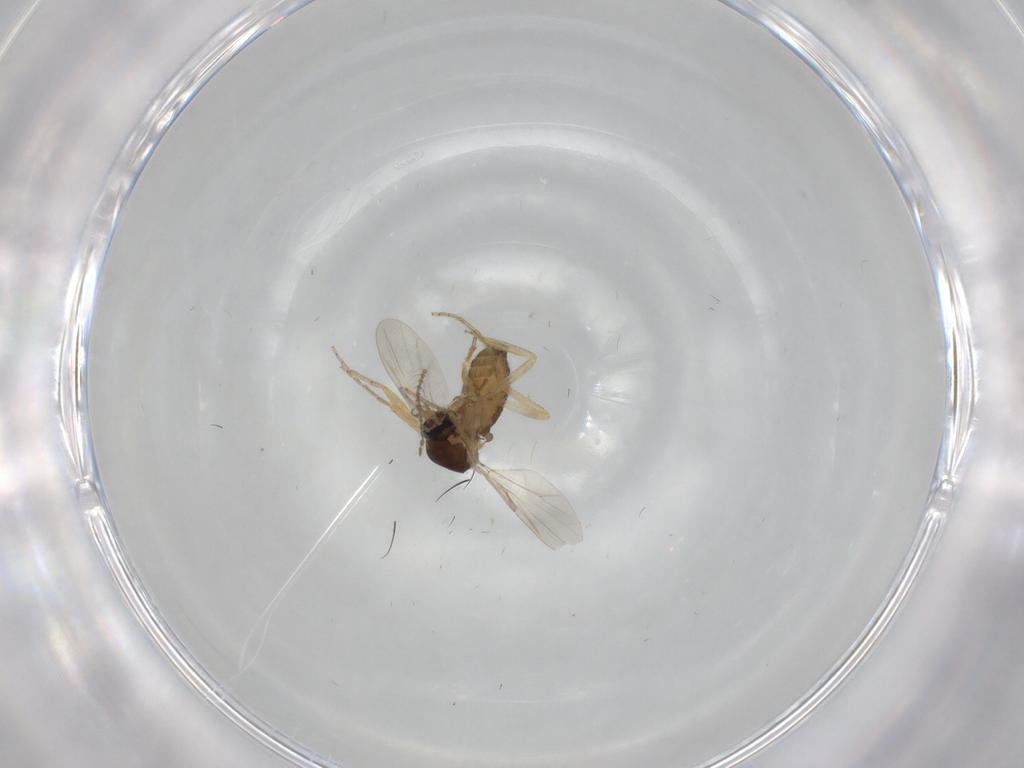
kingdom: Animalia
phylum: Arthropoda
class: Insecta
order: Diptera
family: Ceratopogonidae
